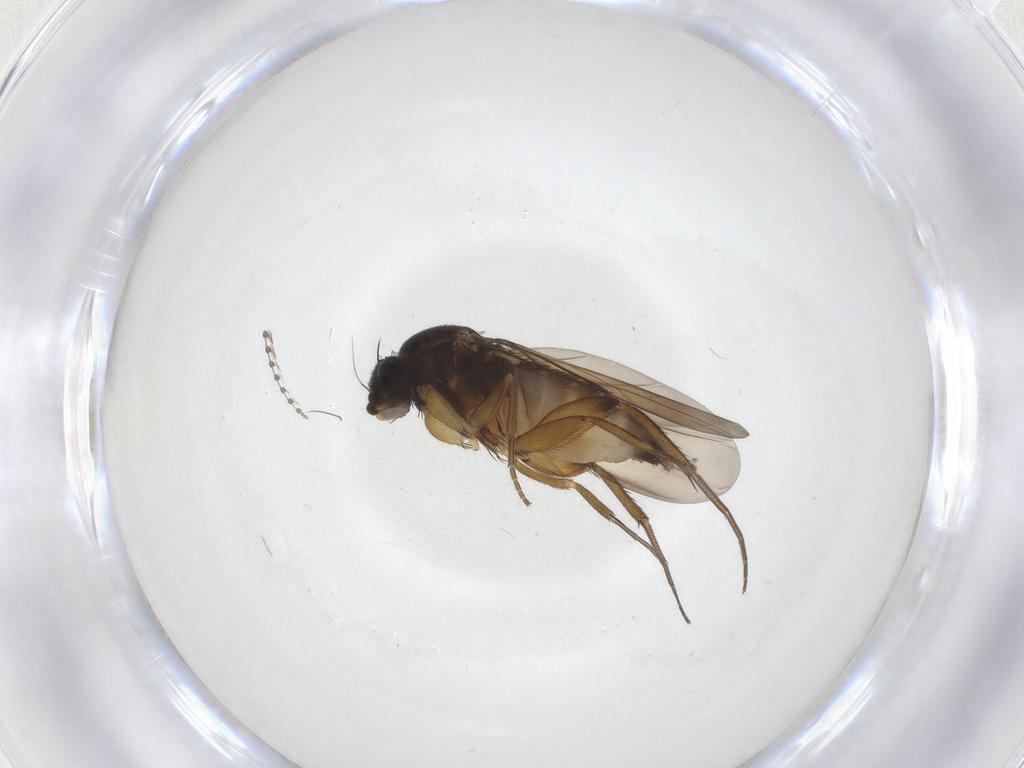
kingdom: Animalia
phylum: Arthropoda
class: Insecta
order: Diptera
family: Phoridae
